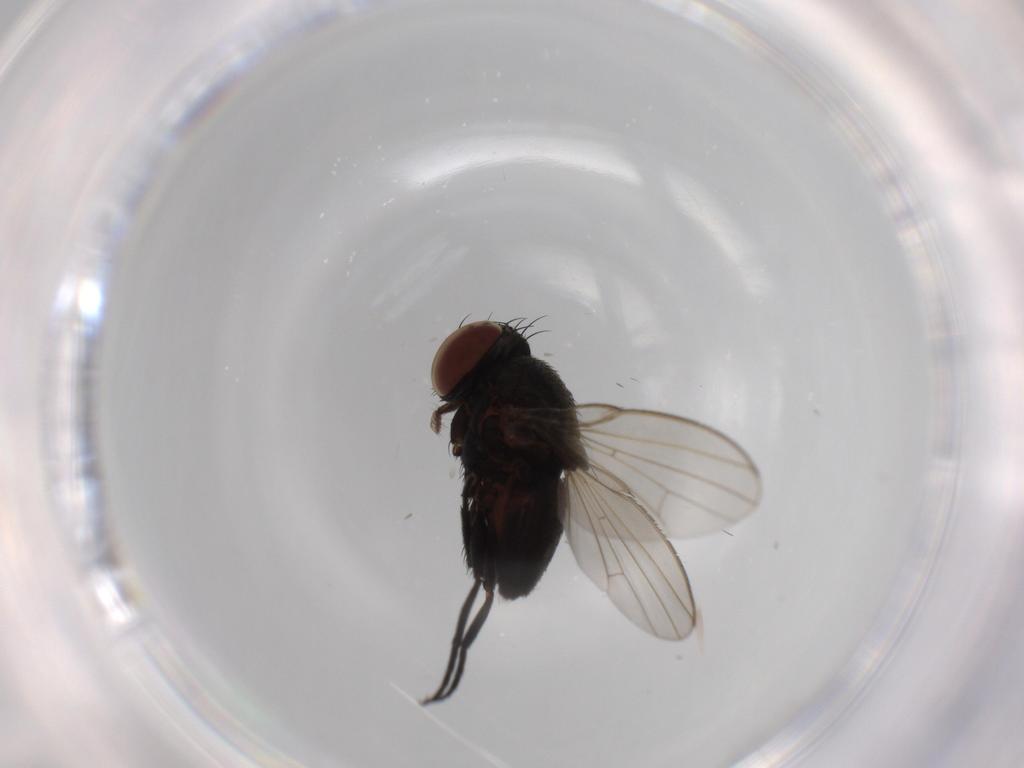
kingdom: Animalia
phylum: Arthropoda
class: Insecta
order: Diptera
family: Milichiidae
